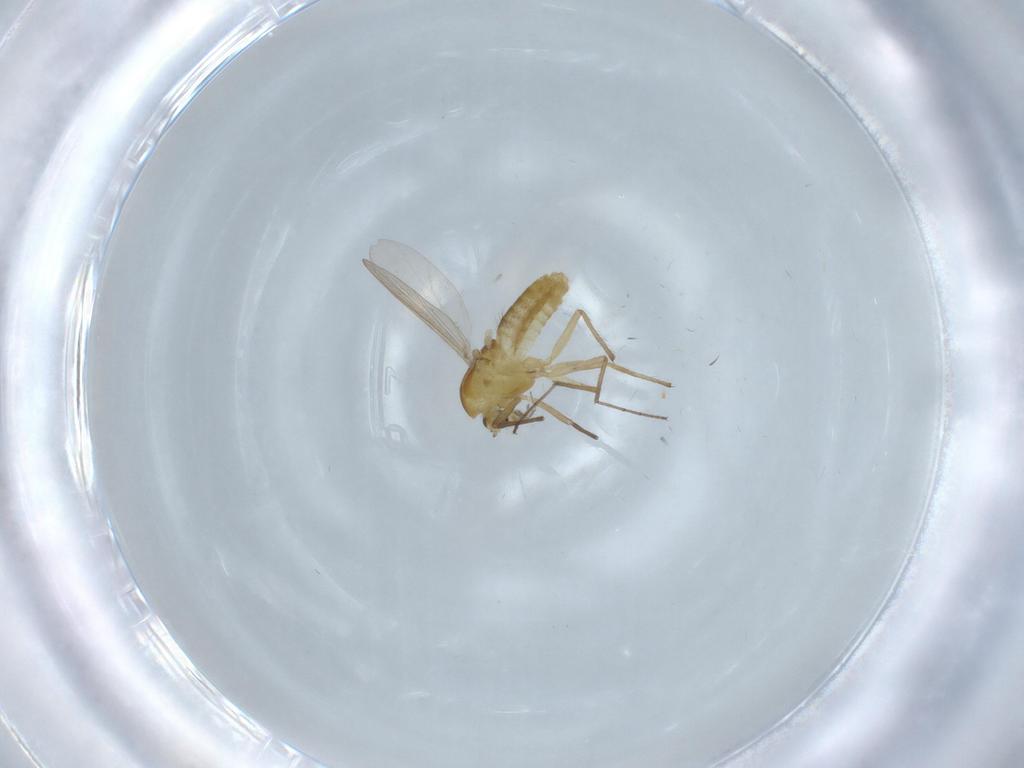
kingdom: Animalia
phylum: Arthropoda
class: Insecta
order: Diptera
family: Chironomidae
